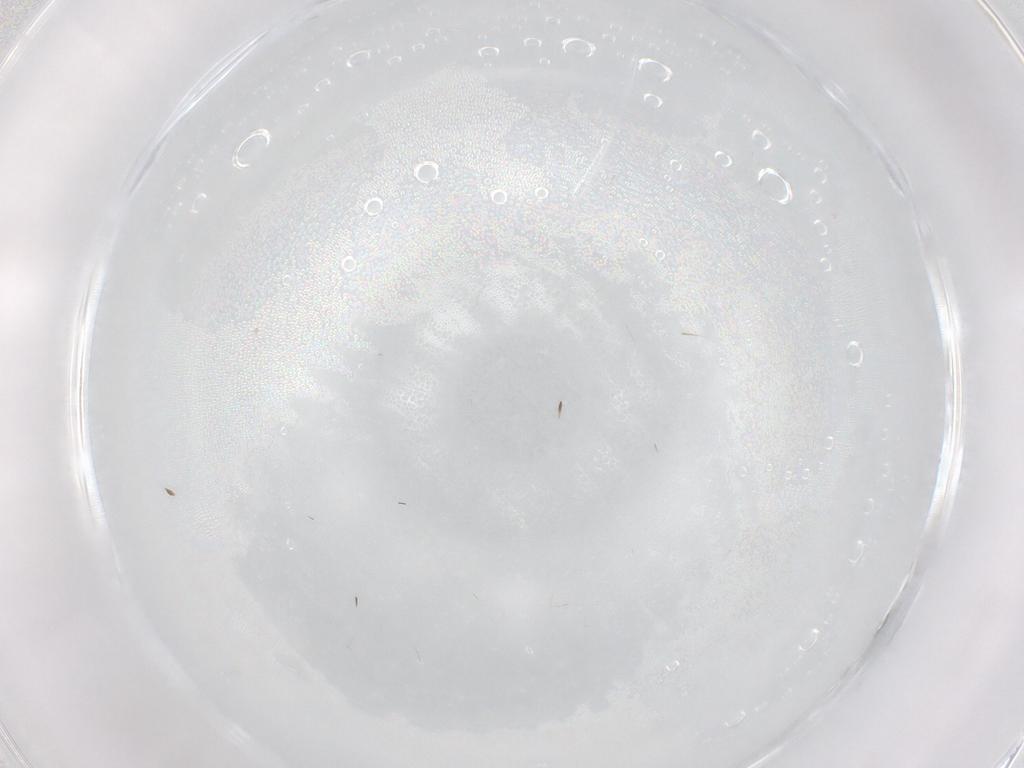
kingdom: Animalia
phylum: Arthropoda
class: Insecta
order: Diptera
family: Cecidomyiidae
